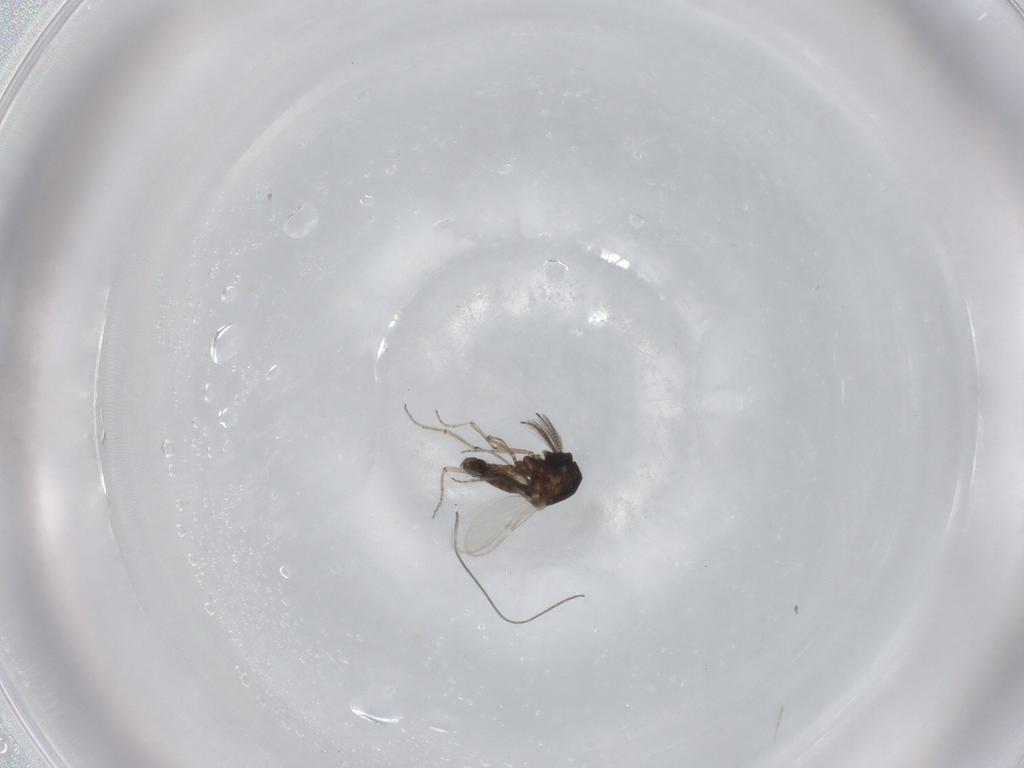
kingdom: Animalia
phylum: Arthropoda
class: Insecta
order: Diptera
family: Ceratopogonidae
